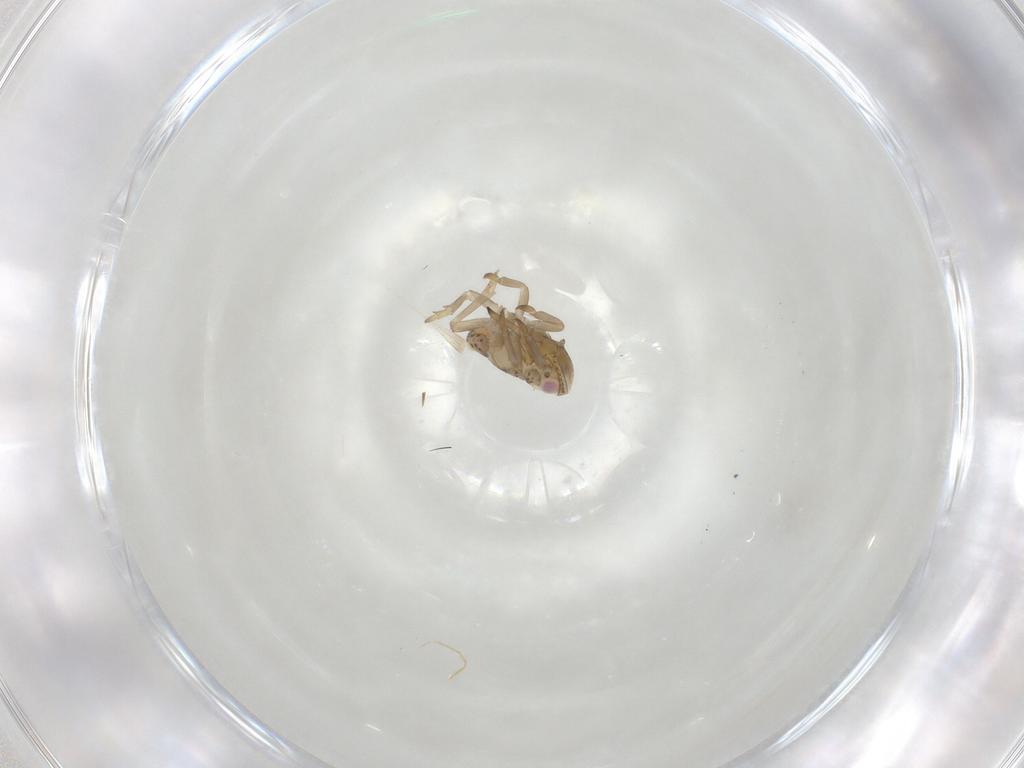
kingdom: Animalia
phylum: Arthropoda
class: Insecta
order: Hemiptera
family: Tropiduchidae
